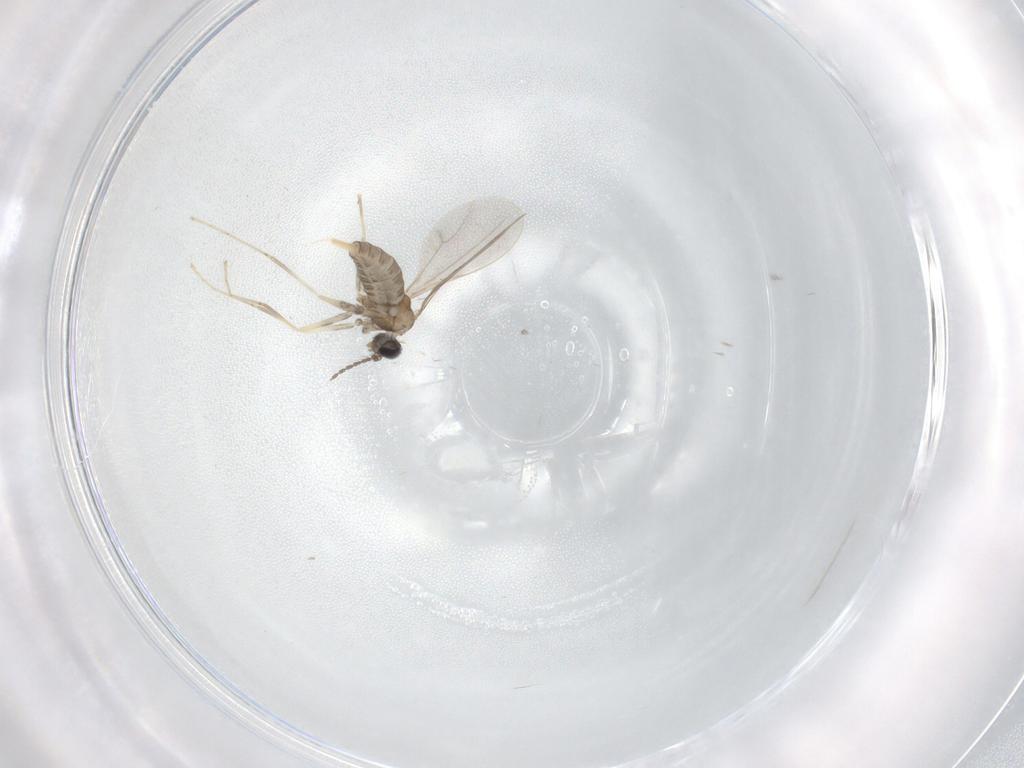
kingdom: Animalia
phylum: Arthropoda
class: Insecta
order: Diptera
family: Cecidomyiidae
